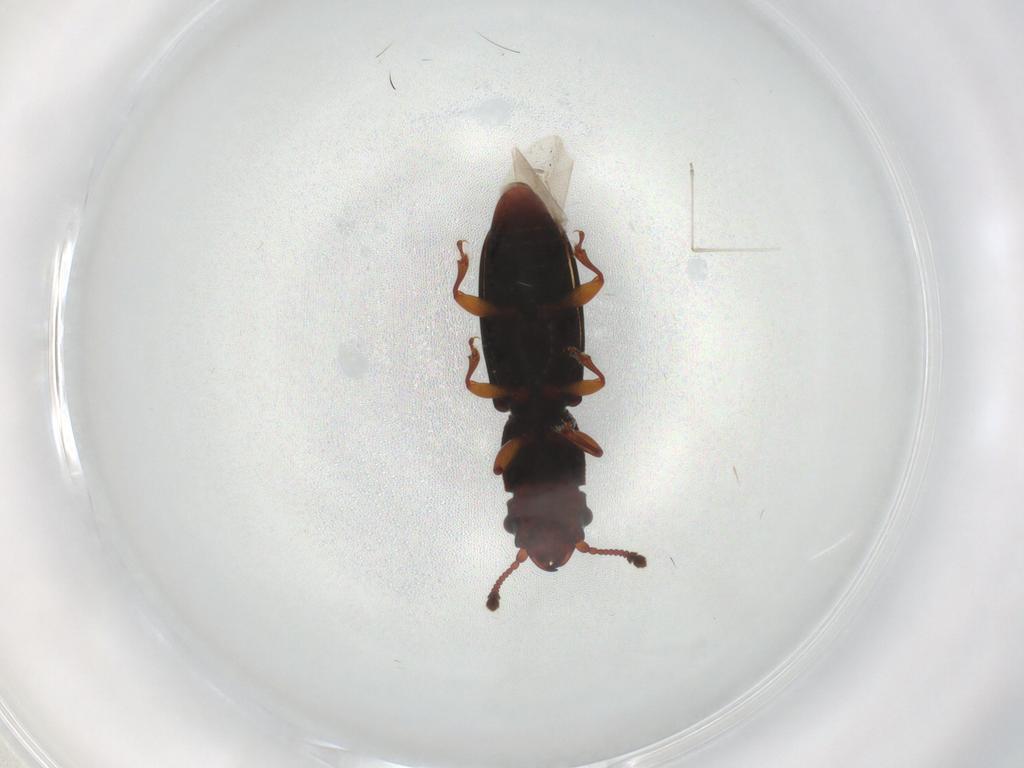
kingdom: Animalia
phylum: Arthropoda
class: Insecta
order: Coleoptera
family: Monotomidae
